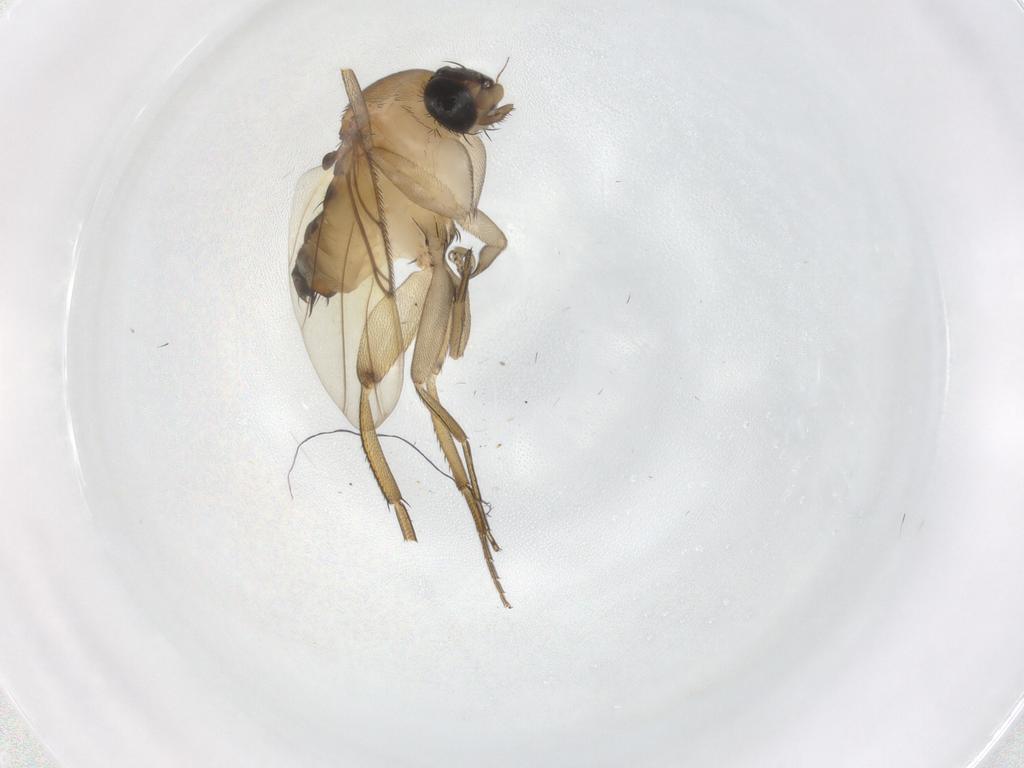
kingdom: Animalia
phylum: Arthropoda
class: Insecta
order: Diptera
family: Phoridae
